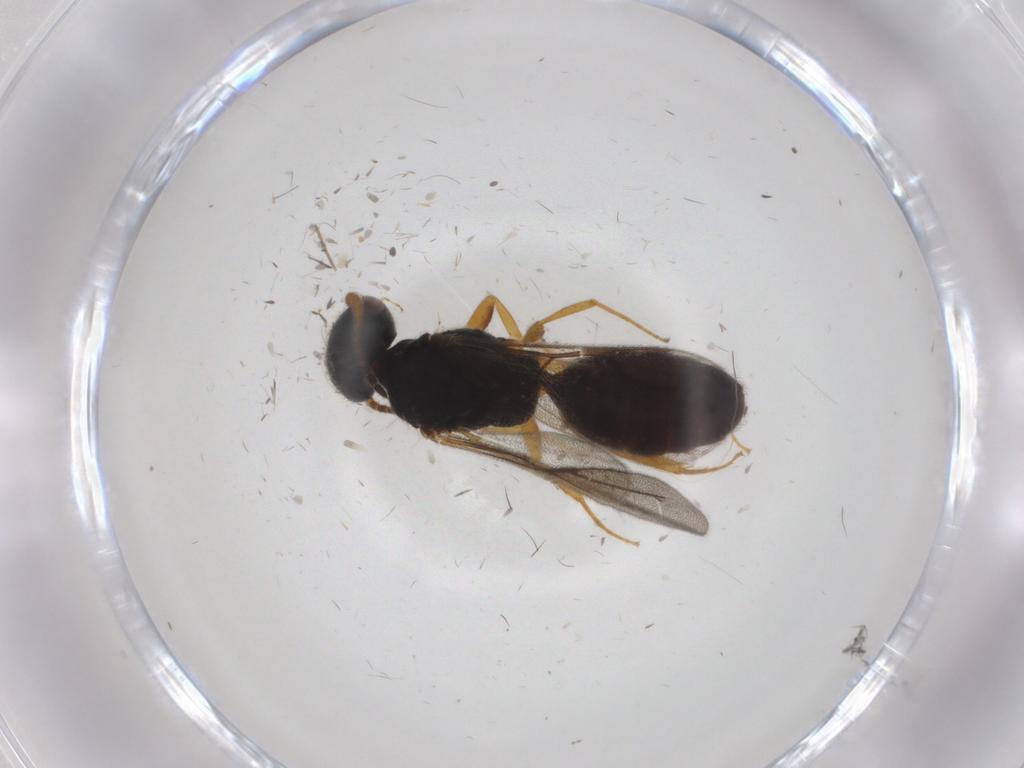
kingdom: Animalia
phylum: Arthropoda
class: Insecta
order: Hymenoptera
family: Bethylidae
